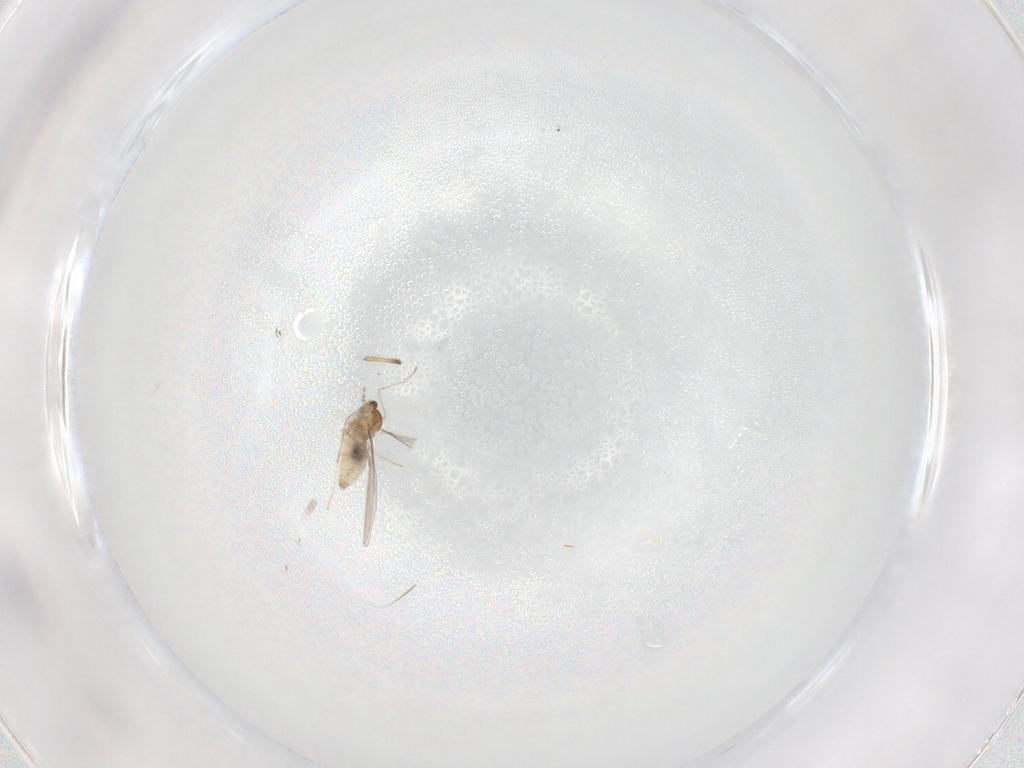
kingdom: Animalia
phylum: Arthropoda
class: Insecta
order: Diptera
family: Cecidomyiidae
